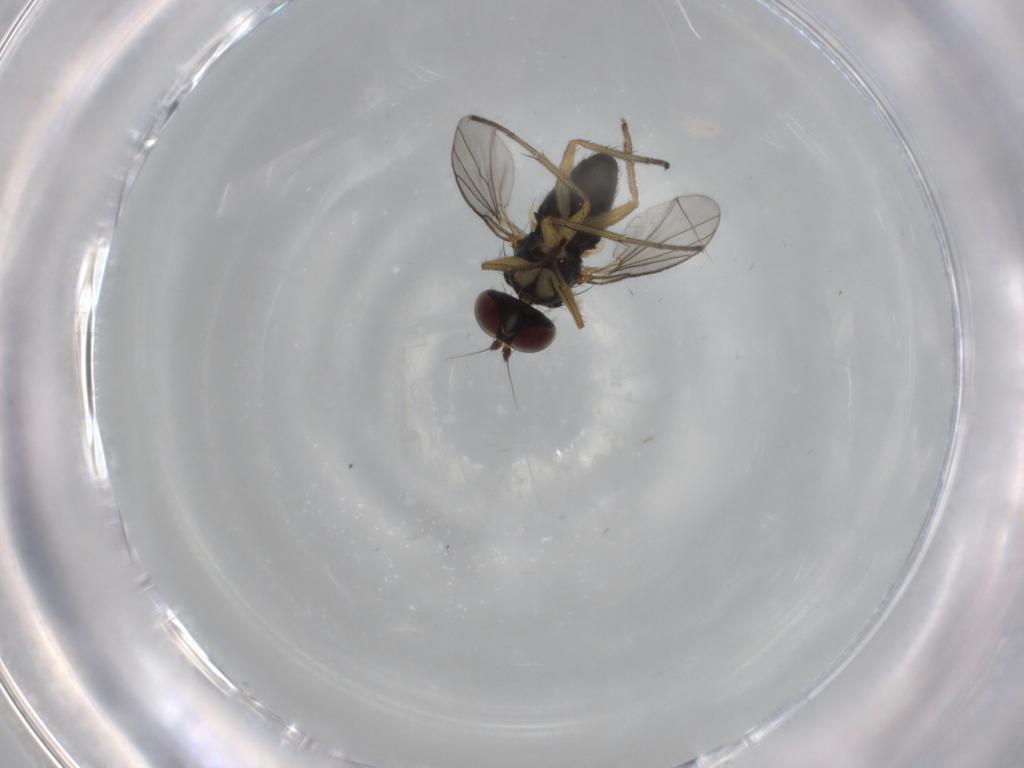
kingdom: Animalia
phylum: Arthropoda
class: Insecta
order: Diptera
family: Dolichopodidae
